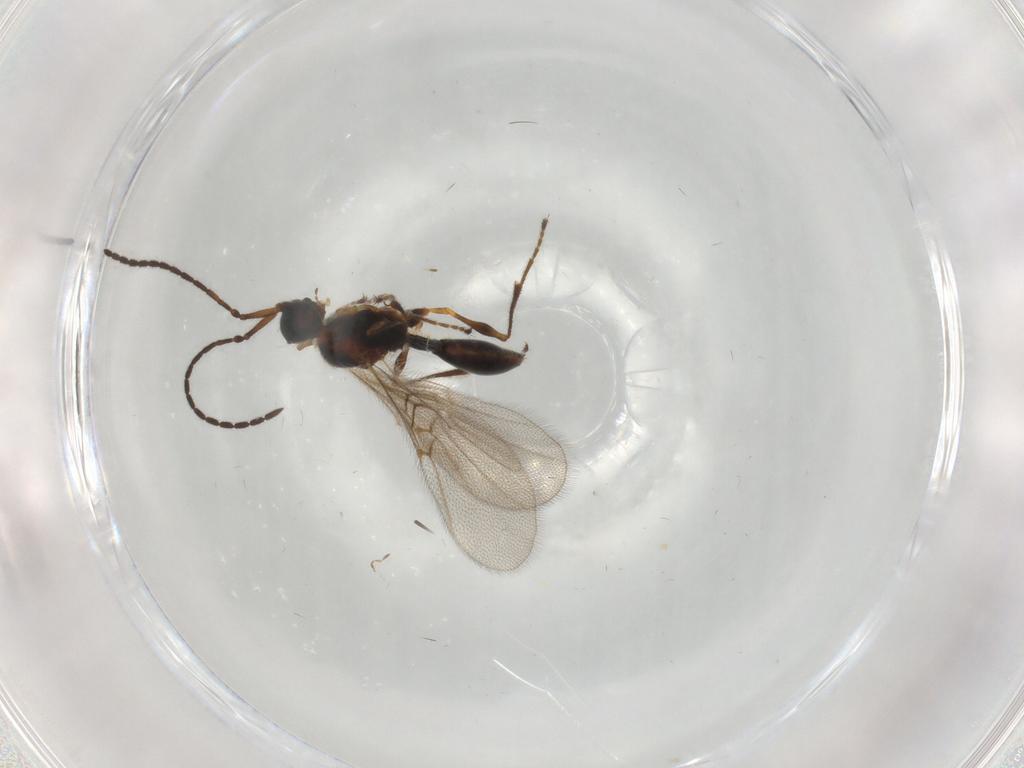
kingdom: Animalia
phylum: Arthropoda
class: Insecta
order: Hymenoptera
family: Diapriidae
